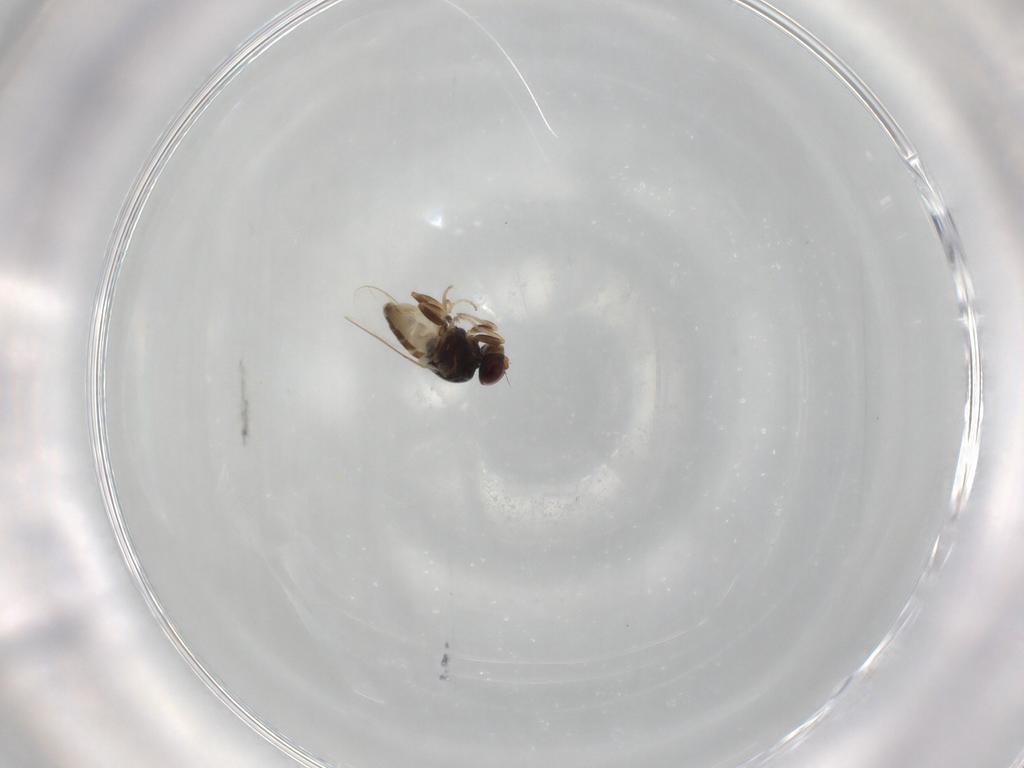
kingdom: Animalia
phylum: Arthropoda
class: Insecta
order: Diptera
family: Chloropidae
